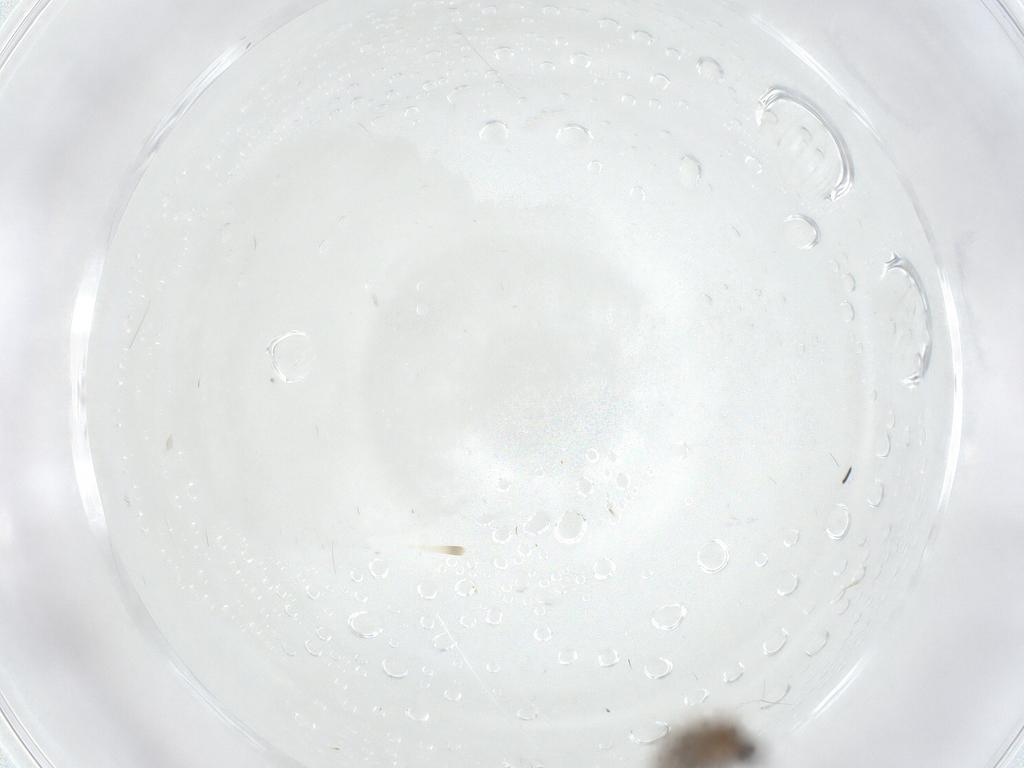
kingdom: Animalia
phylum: Arthropoda
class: Insecta
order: Diptera
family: Cecidomyiidae
